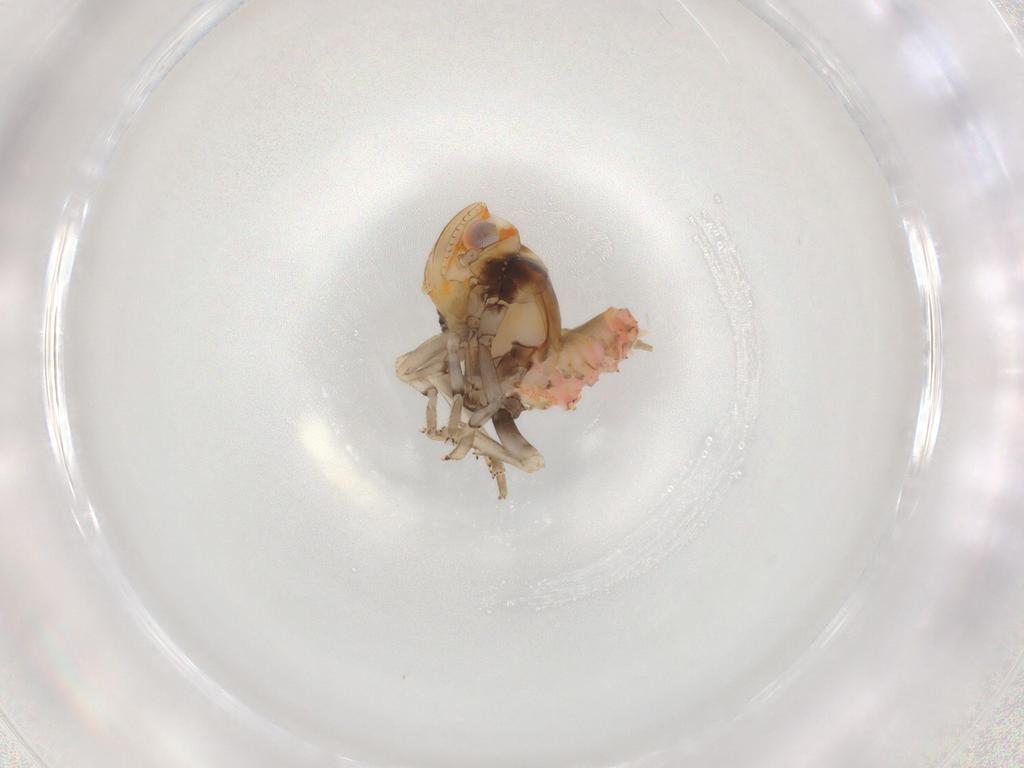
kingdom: Animalia
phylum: Arthropoda
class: Insecta
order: Hemiptera
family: Ricaniidae
